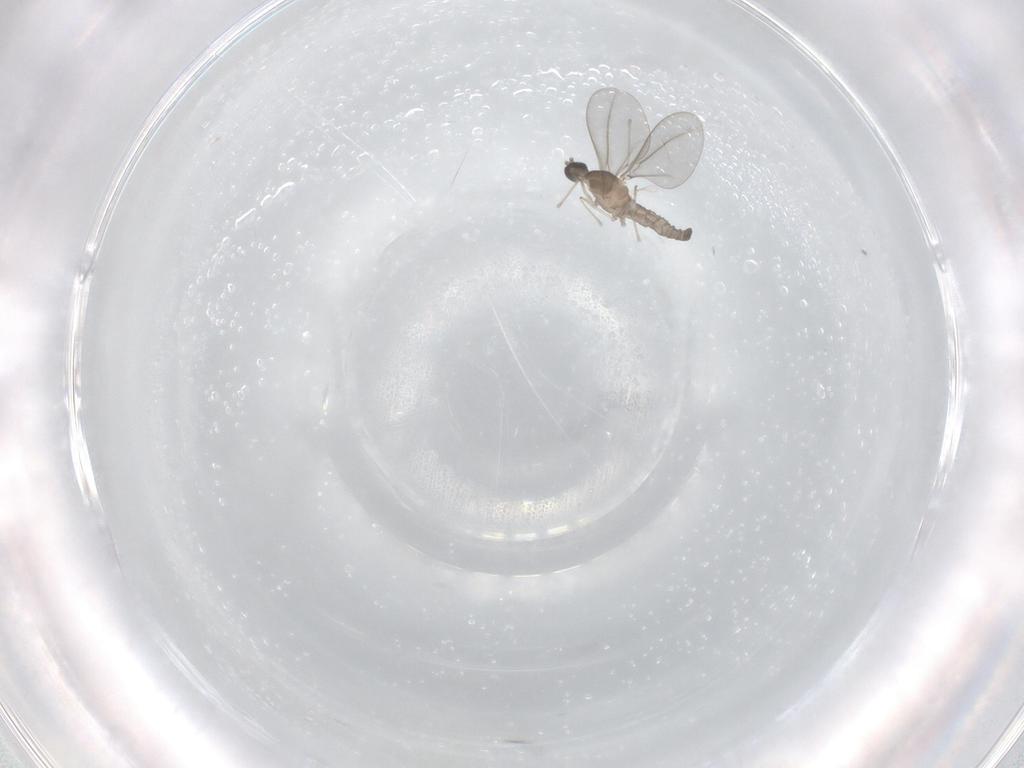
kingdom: Animalia
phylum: Arthropoda
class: Insecta
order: Diptera
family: Cecidomyiidae
